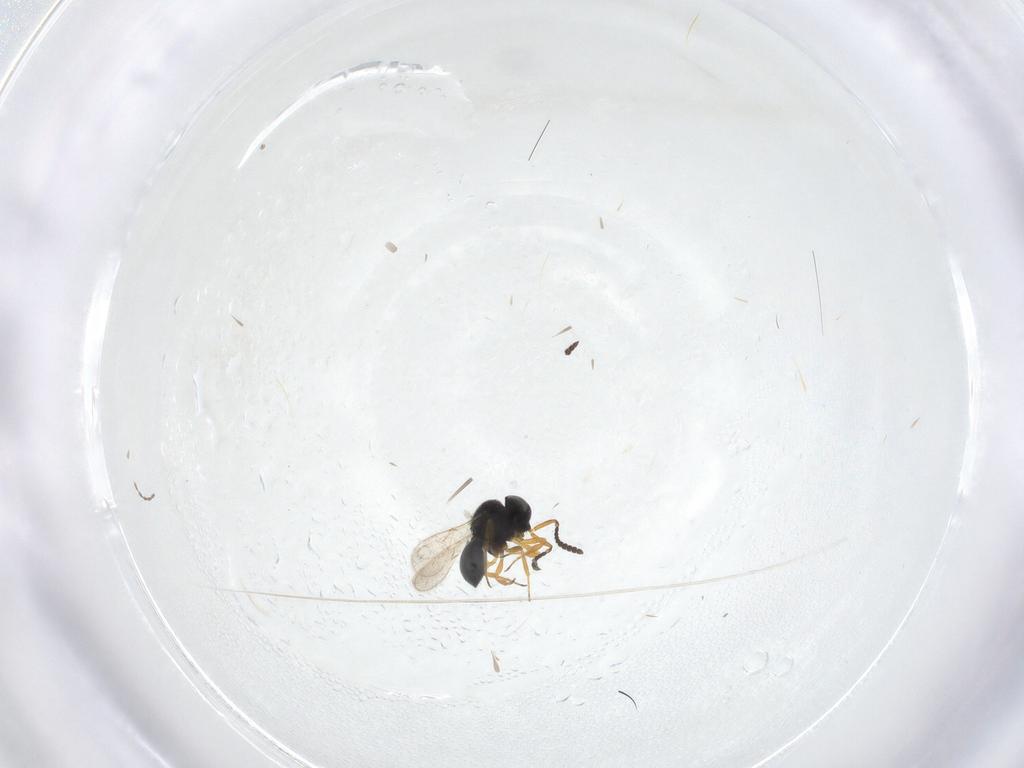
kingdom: Animalia
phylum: Arthropoda
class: Insecta
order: Hymenoptera
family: Scelionidae
